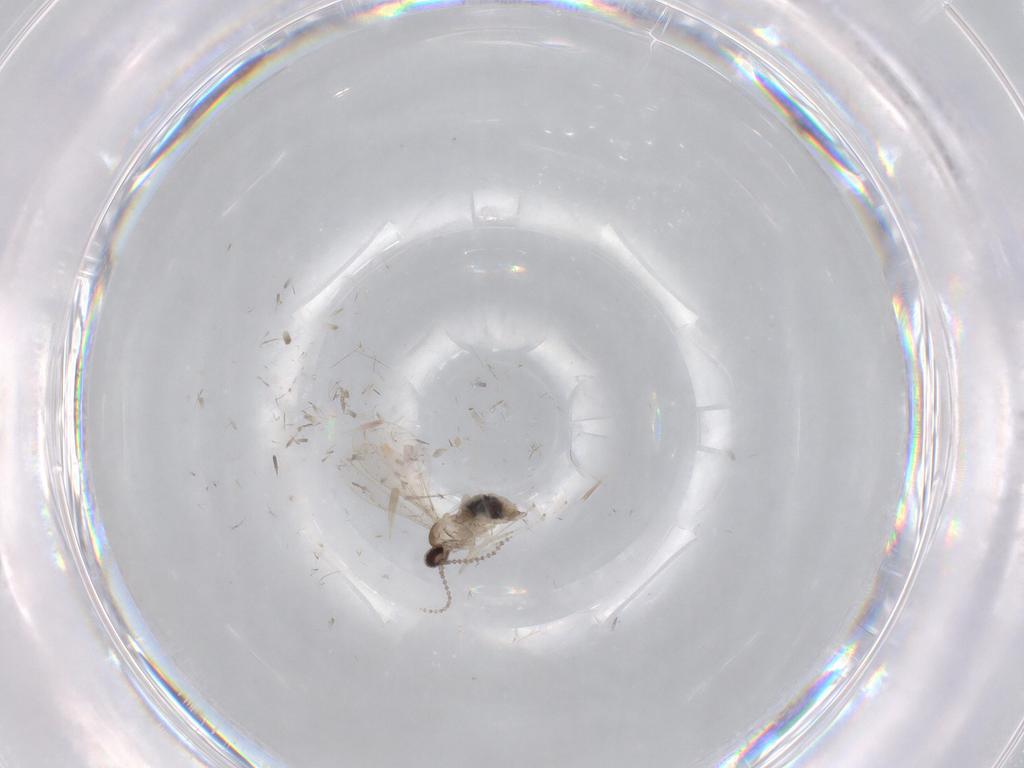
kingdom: Animalia
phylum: Arthropoda
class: Insecta
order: Diptera
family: Cecidomyiidae
